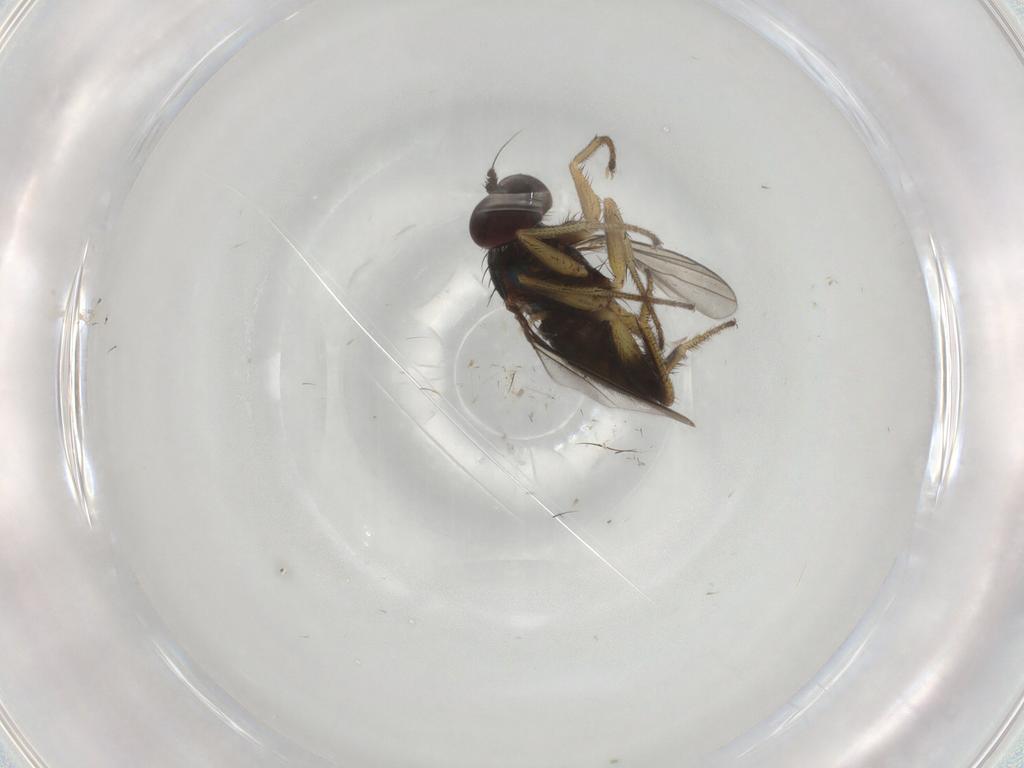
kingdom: Animalia
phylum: Arthropoda
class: Insecta
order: Diptera
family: Dolichopodidae
